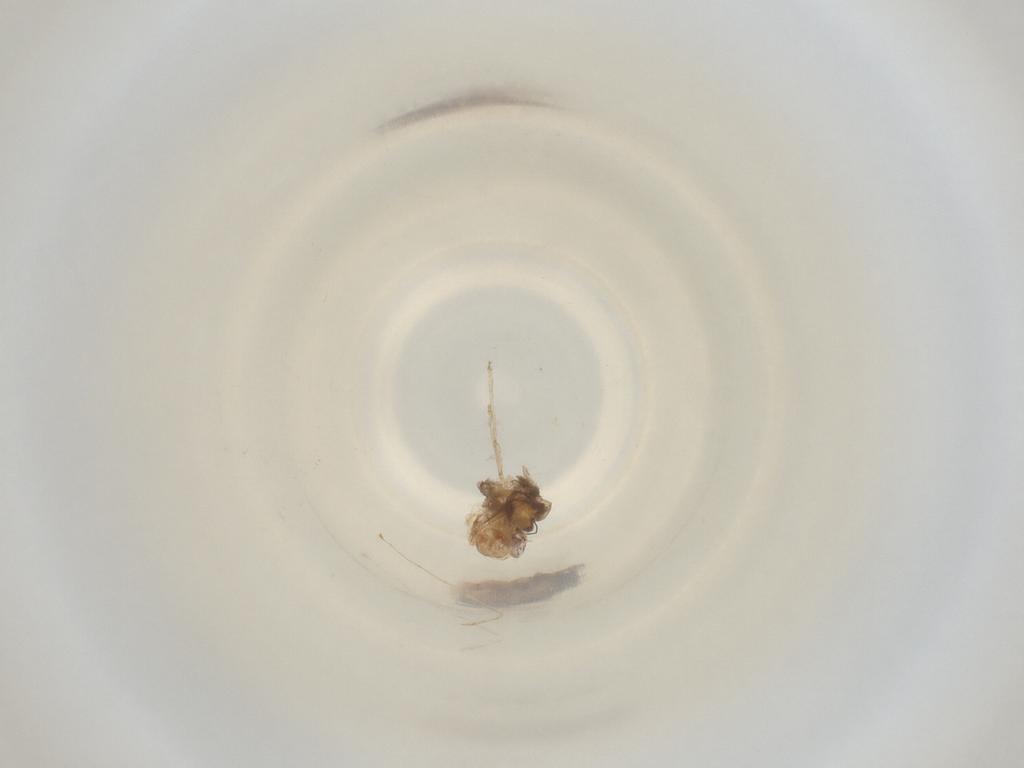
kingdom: Animalia
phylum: Arthropoda
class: Insecta
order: Diptera
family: Cecidomyiidae
